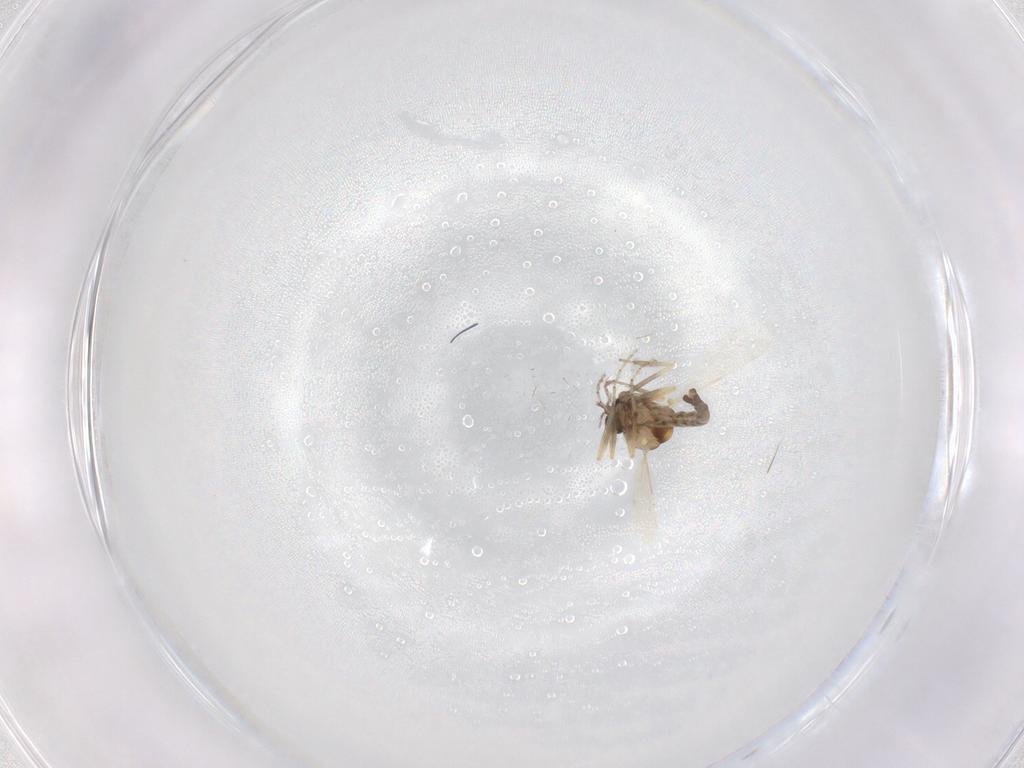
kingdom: Animalia
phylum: Arthropoda
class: Insecta
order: Diptera
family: Ceratopogonidae
